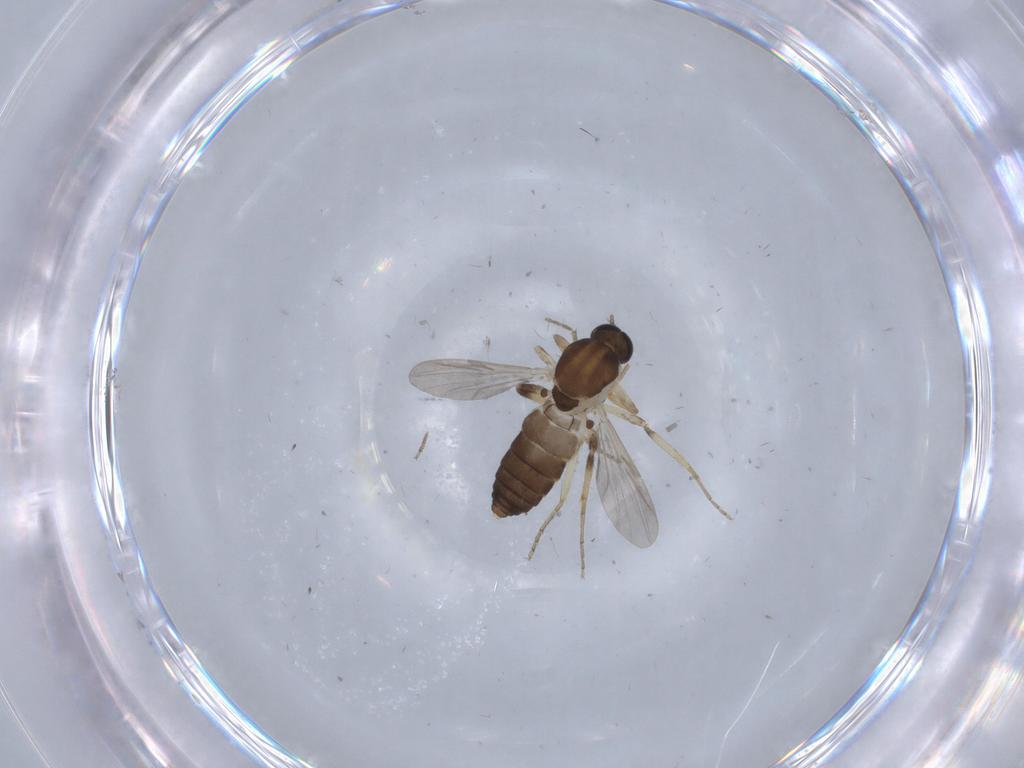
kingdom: Animalia
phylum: Arthropoda
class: Insecta
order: Diptera
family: Ceratopogonidae
